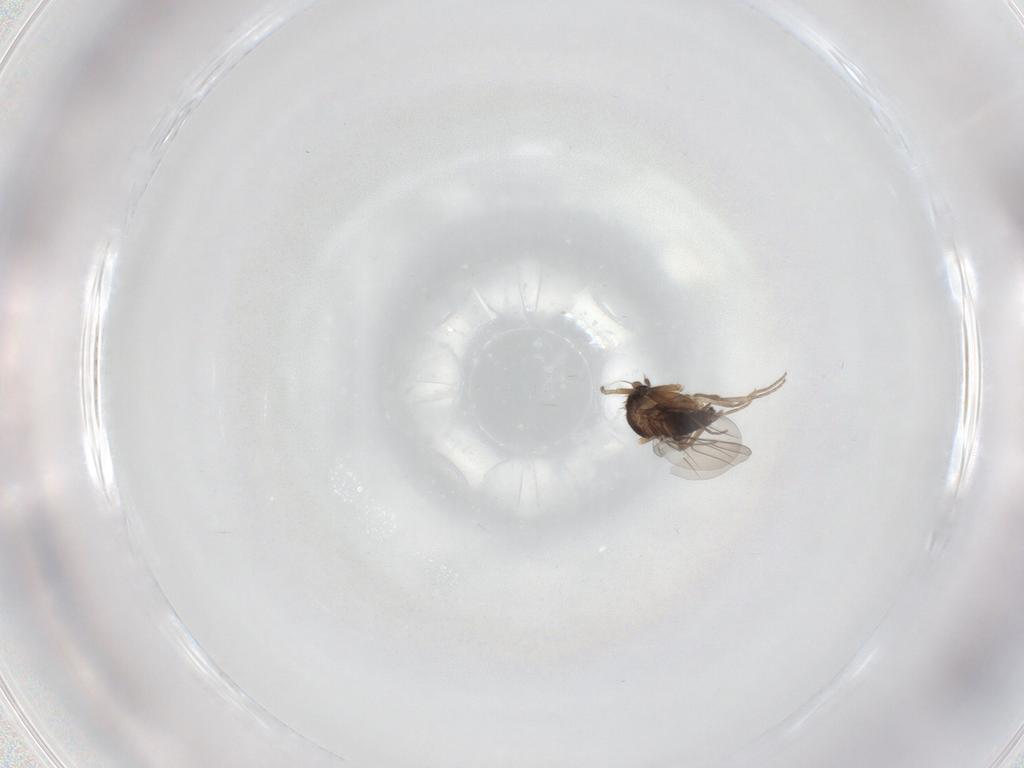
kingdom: Animalia
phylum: Arthropoda
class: Insecta
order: Diptera
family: Phoridae
